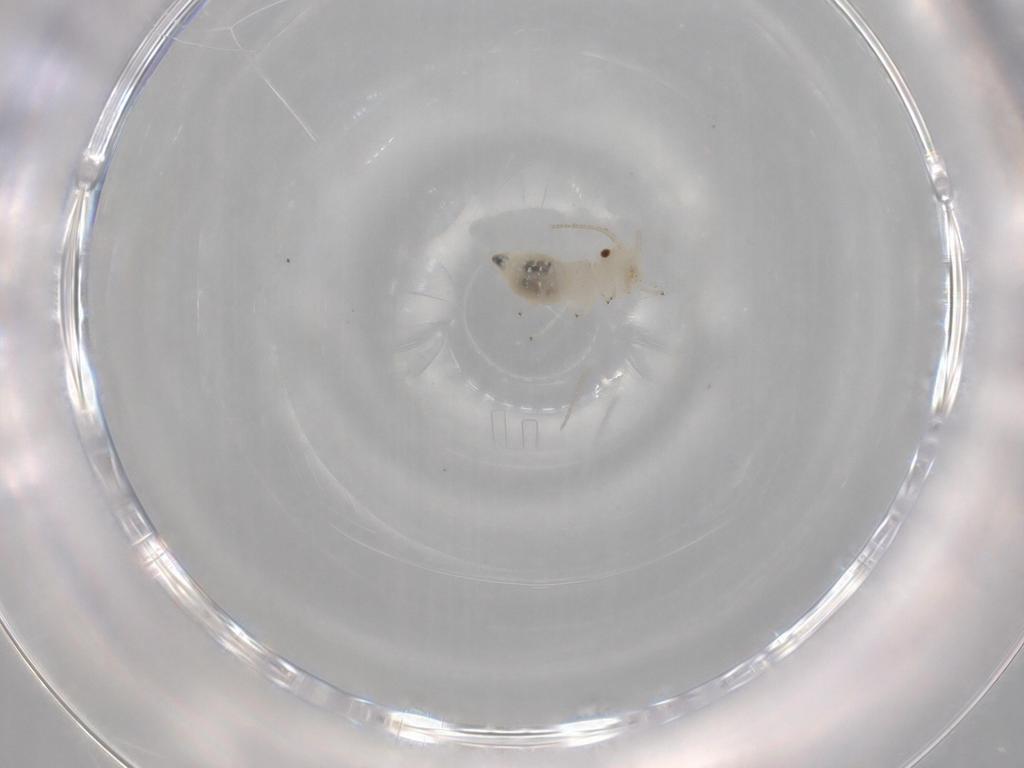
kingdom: Animalia
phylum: Arthropoda
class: Insecta
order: Psocodea
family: Caeciliusidae
